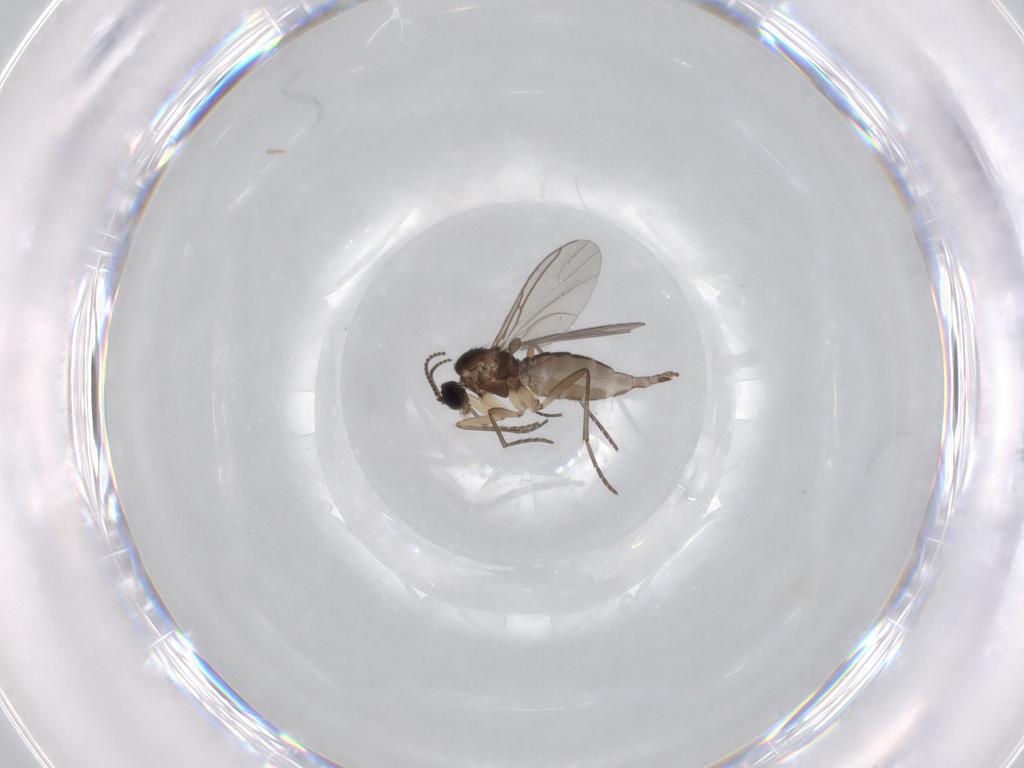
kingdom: Animalia
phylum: Arthropoda
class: Insecta
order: Diptera
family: Sciaridae
